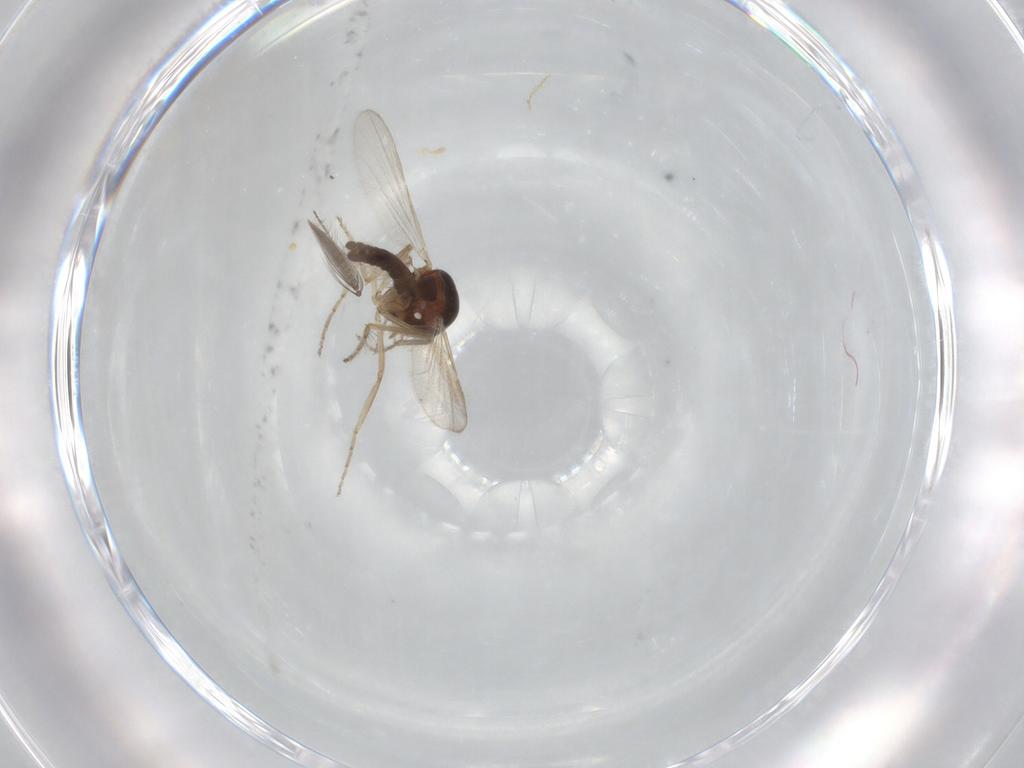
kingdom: Animalia
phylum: Arthropoda
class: Insecta
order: Diptera
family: Ceratopogonidae
